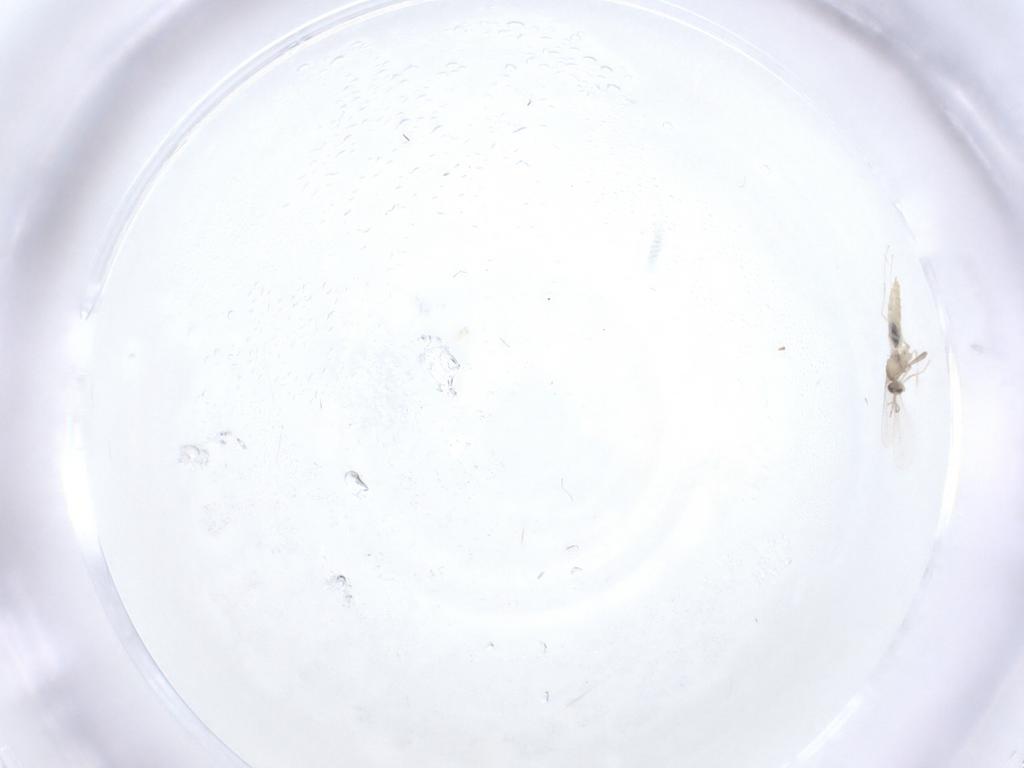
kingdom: Animalia
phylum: Arthropoda
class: Insecta
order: Diptera
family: Cecidomyiidae
